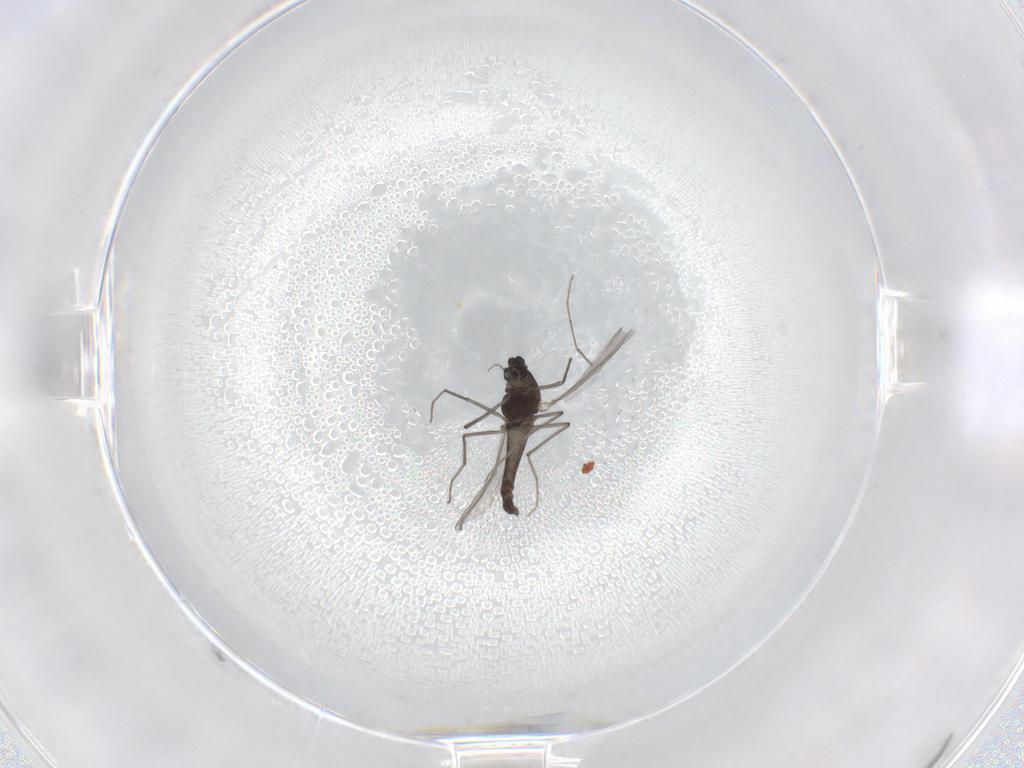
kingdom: Animalia
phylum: Arthropoda
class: Insecta
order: Diptera
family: Chironomidae
